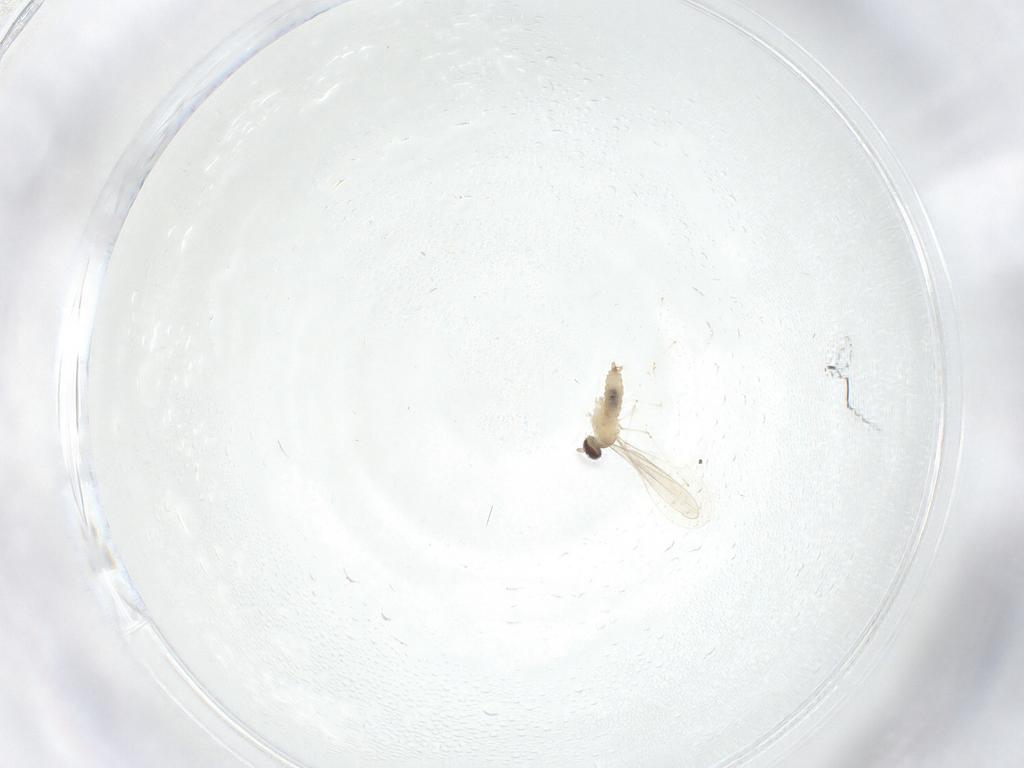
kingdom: Animalia
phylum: Arthropoda
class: Insecta
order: Diptera
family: Cecidomyiidae
